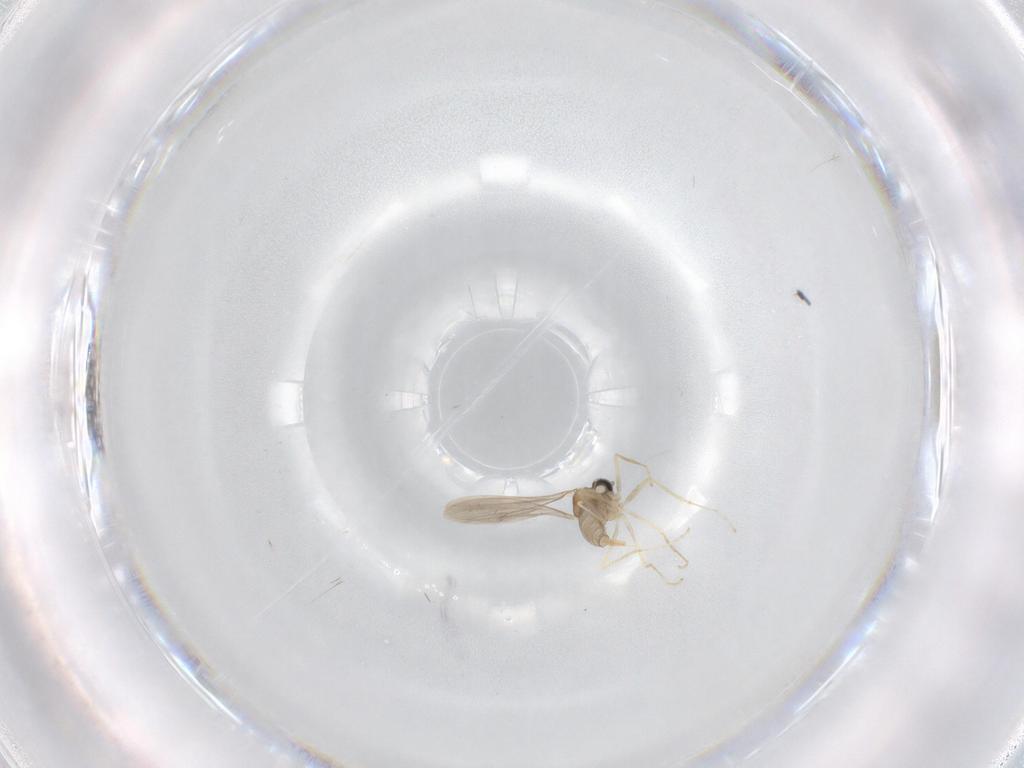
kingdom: Animalia
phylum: Arthropoda
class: Insecta
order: Diptera
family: Cecidomyiidae
